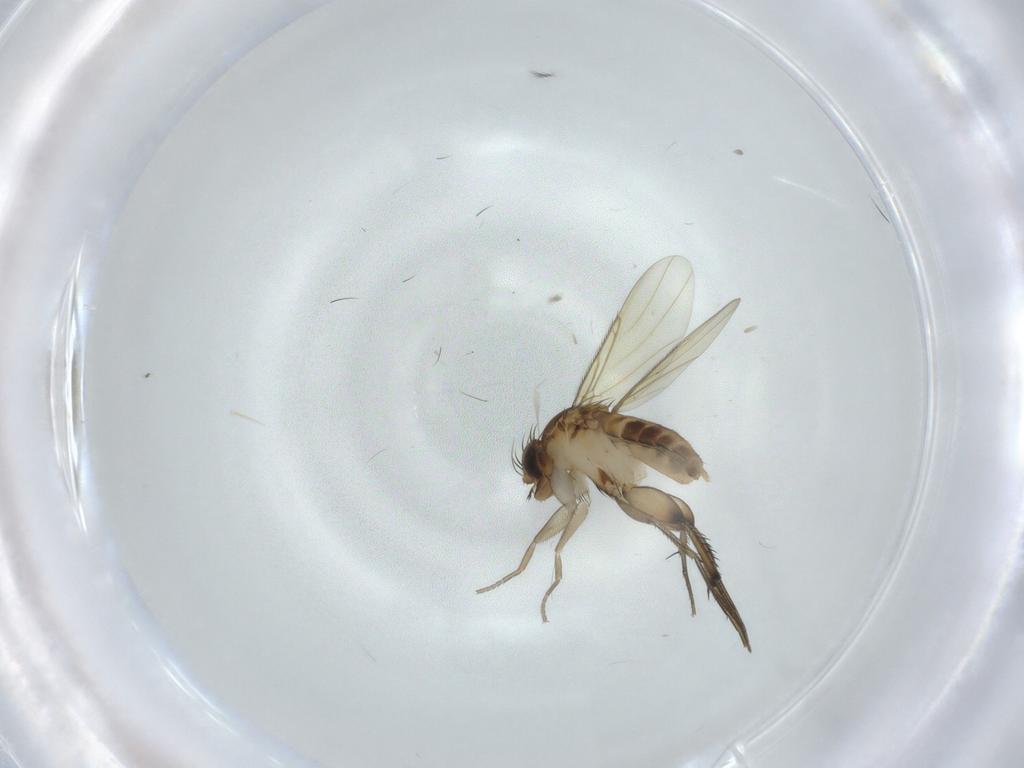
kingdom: Animalia
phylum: Arthropoda
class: Insecta
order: Diptera
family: Phoridae
